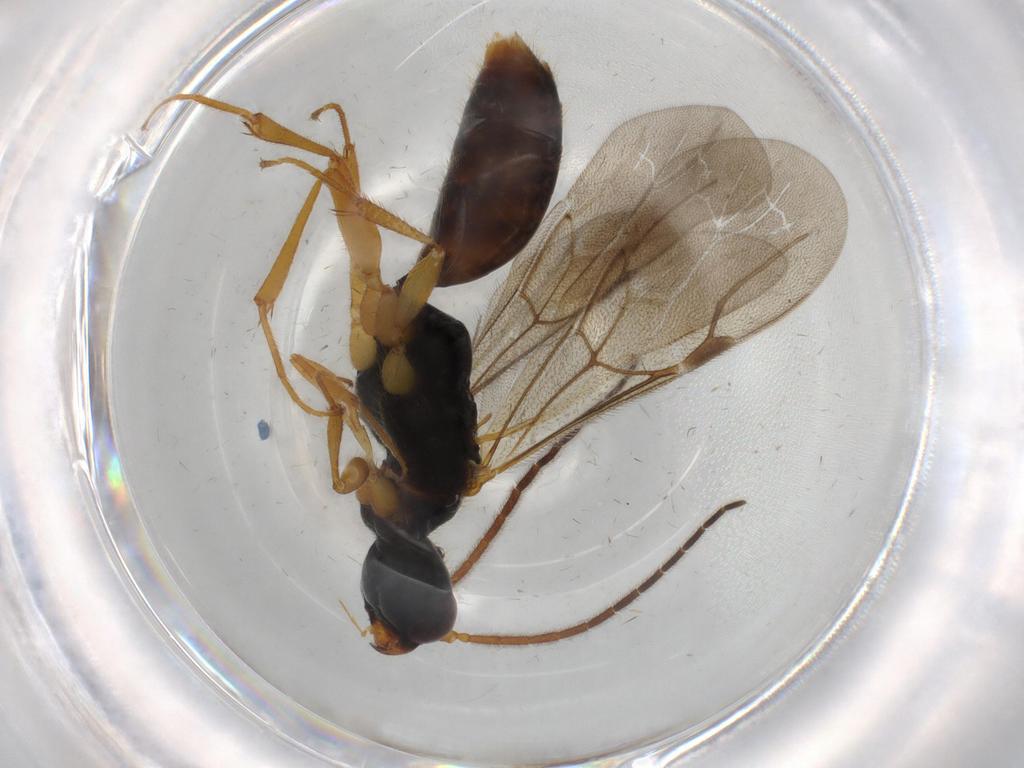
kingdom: Animalia
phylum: Arthropoda
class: Insecta
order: Hymenoptera
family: Bethylidae
